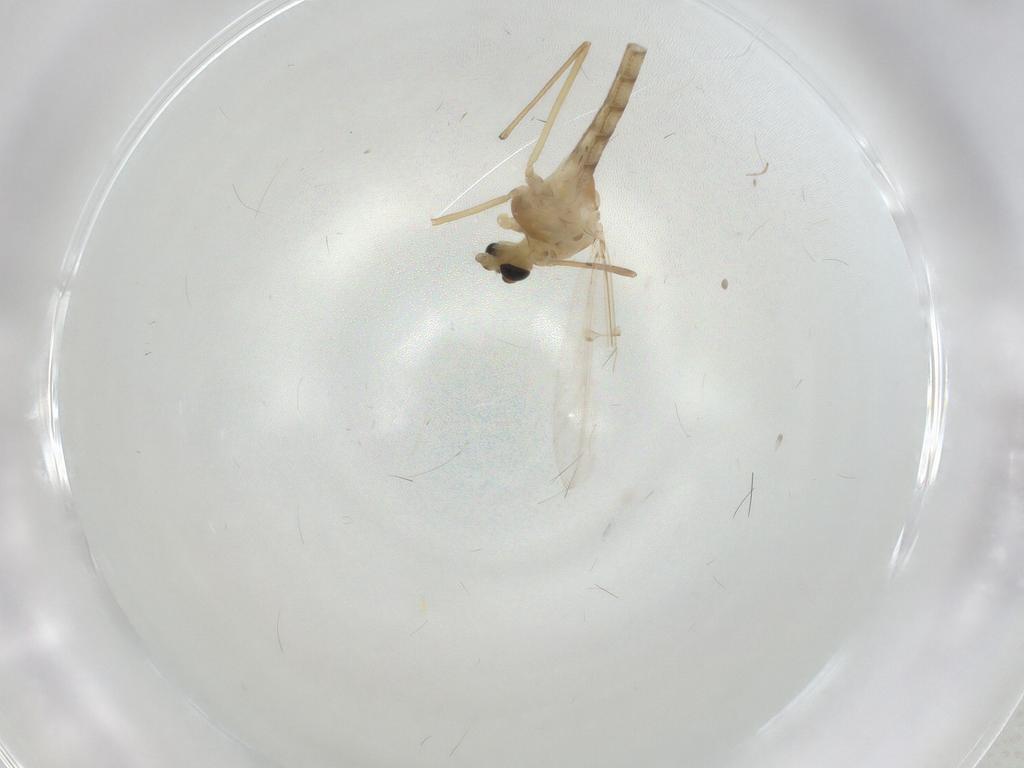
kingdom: Animalia
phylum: Arthropoda
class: Insecta
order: Diptera
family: Chironomidae
